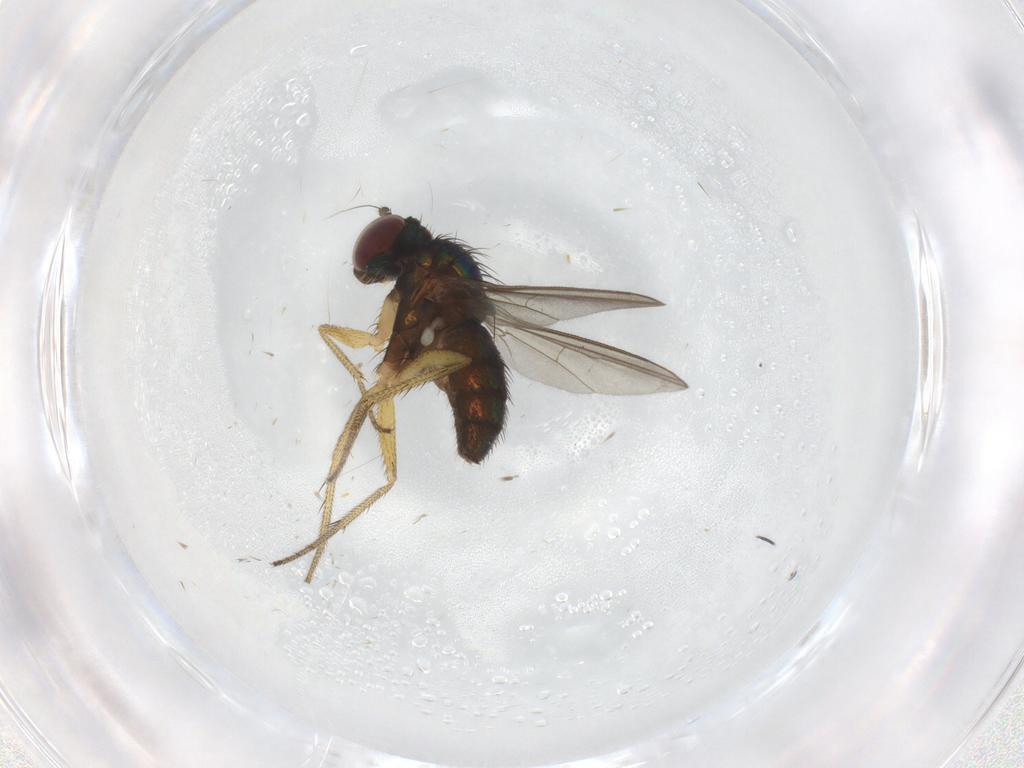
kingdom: Animalia
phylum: Arthropoda
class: Insecta
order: Diptera
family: Dolichopodidae
